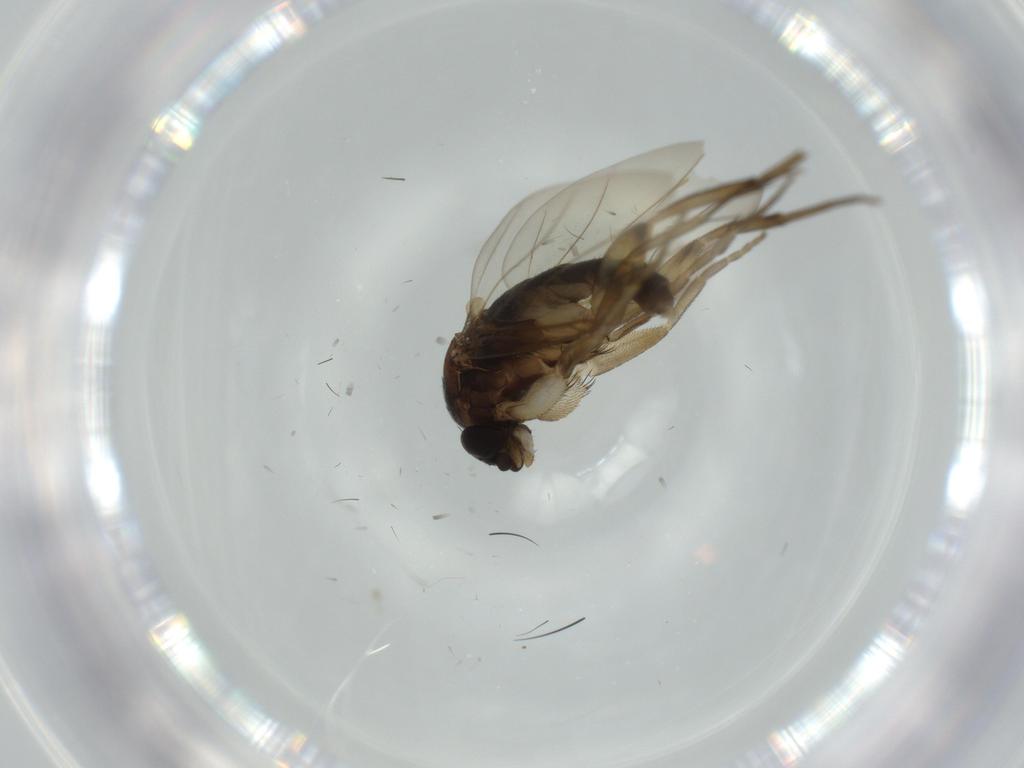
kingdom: Animalia
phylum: Arthropoda
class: Insecta
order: Diptera
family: Phoridae
